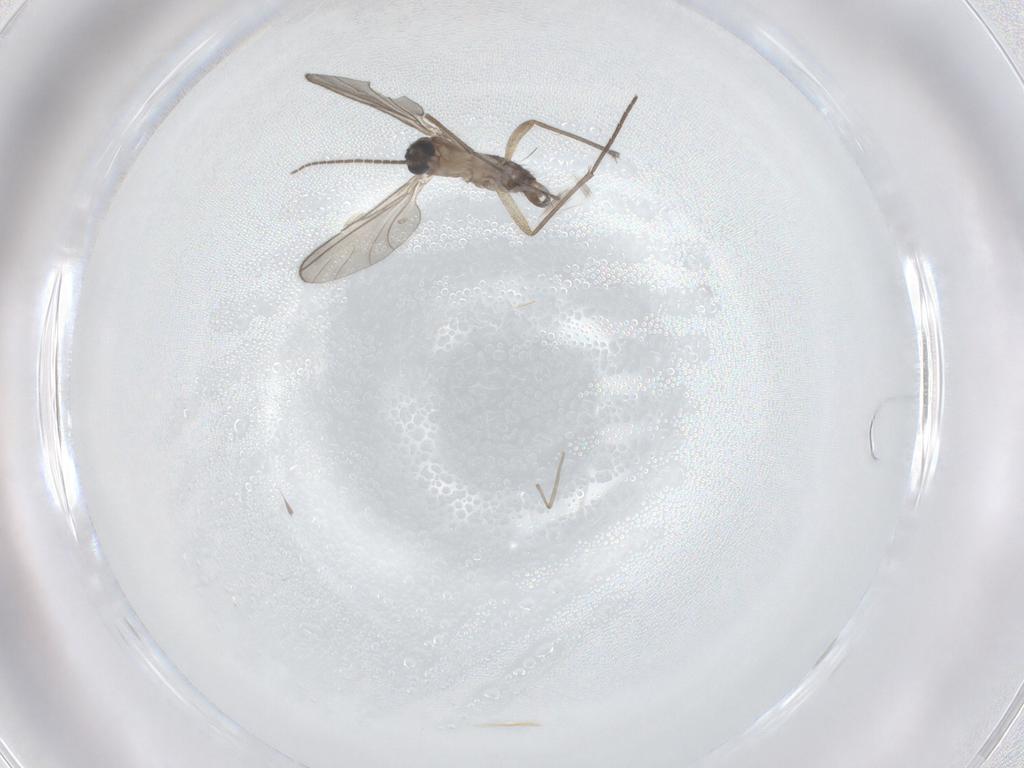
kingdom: Animalia
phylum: Arthropoda
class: Insecta
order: Diptera
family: Sciaridae
